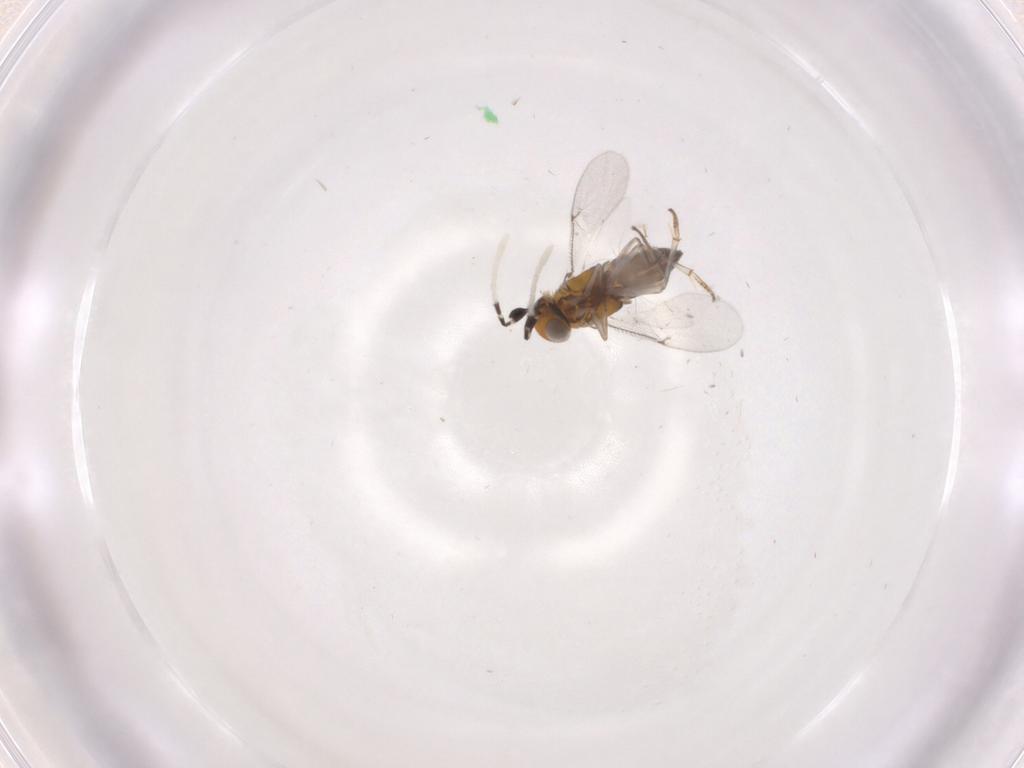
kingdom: Animalia
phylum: Arthropoda
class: Insecta
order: Hymenoptera
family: Encyrtidae
